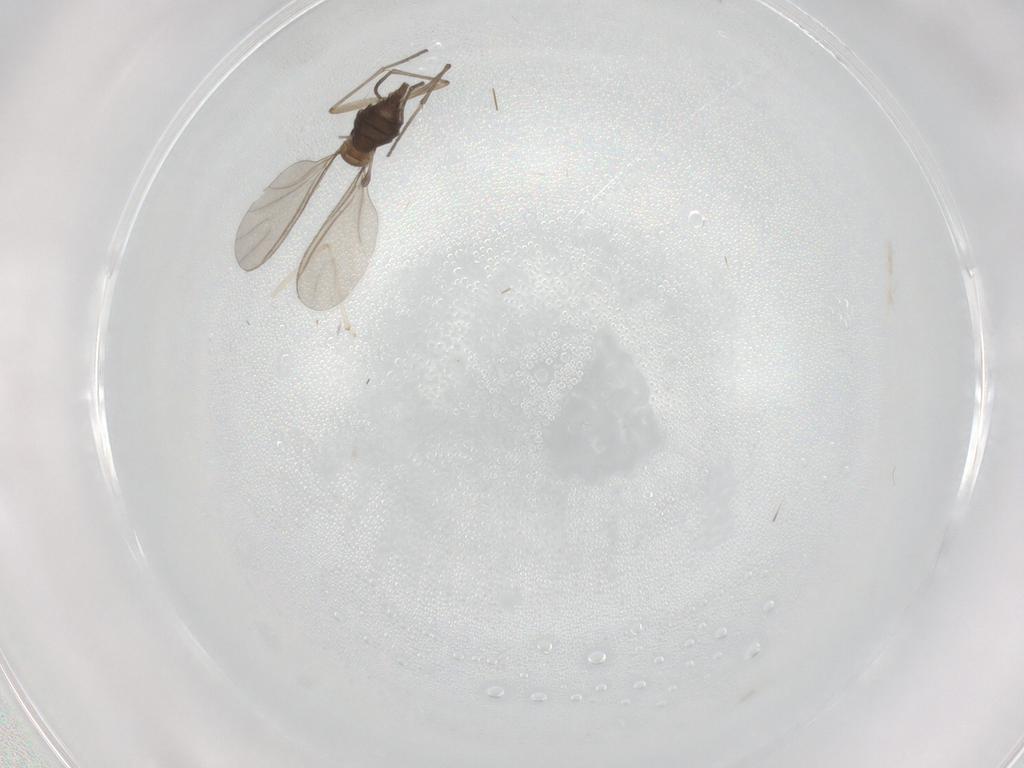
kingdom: Animalia
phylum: Arthropoda
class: Insecta
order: Diptera
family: Sciaridae
